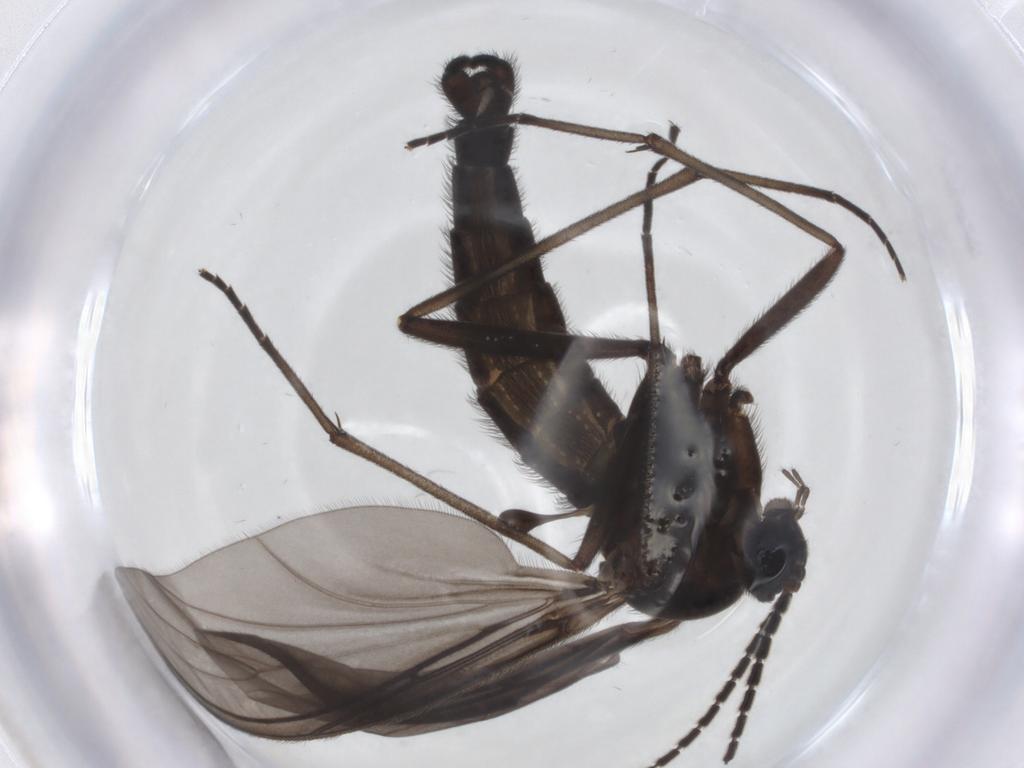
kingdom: Animalia
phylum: Arthropoda
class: Insecta
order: Diptera
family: Chironomidae
